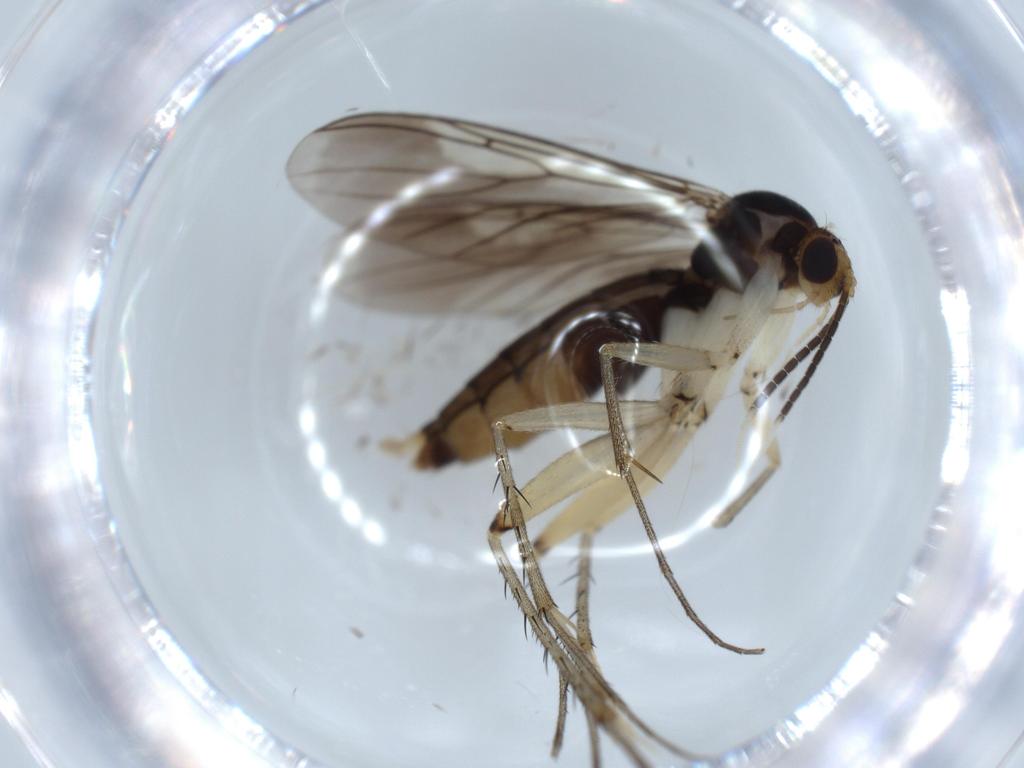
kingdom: Animalia
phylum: Arthropoda
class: Insecta
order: Diptera
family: Mycetophilidae
